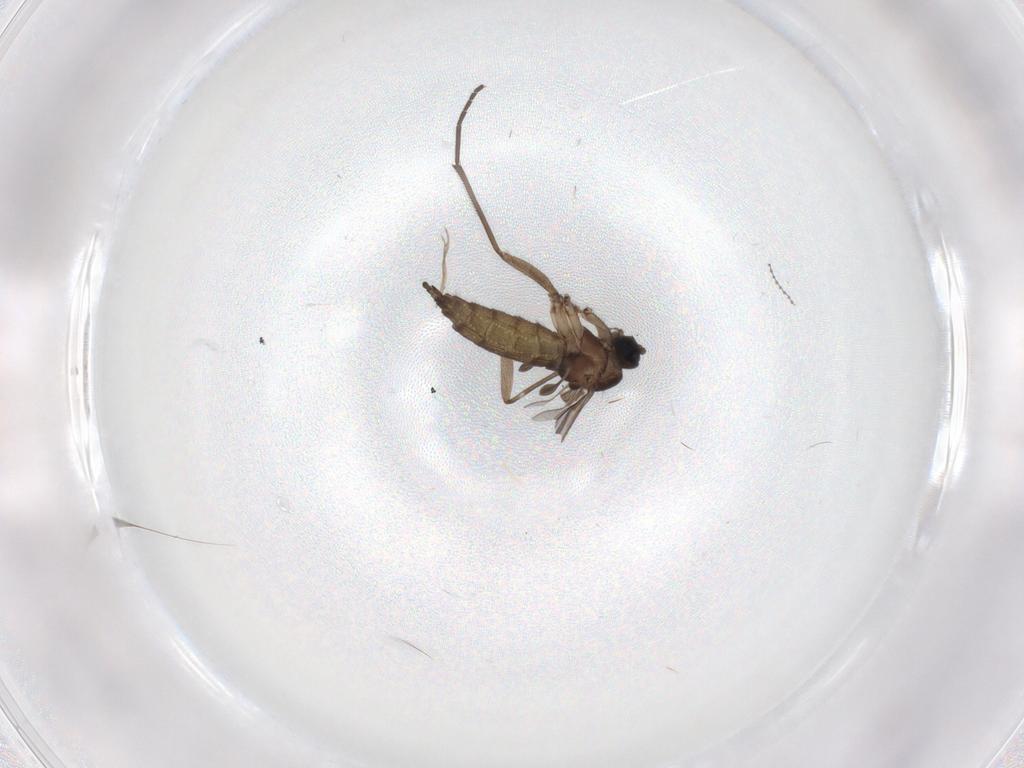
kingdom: Animalia
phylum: Arthropoda
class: Insecta
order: Diptera
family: Sciaridae
